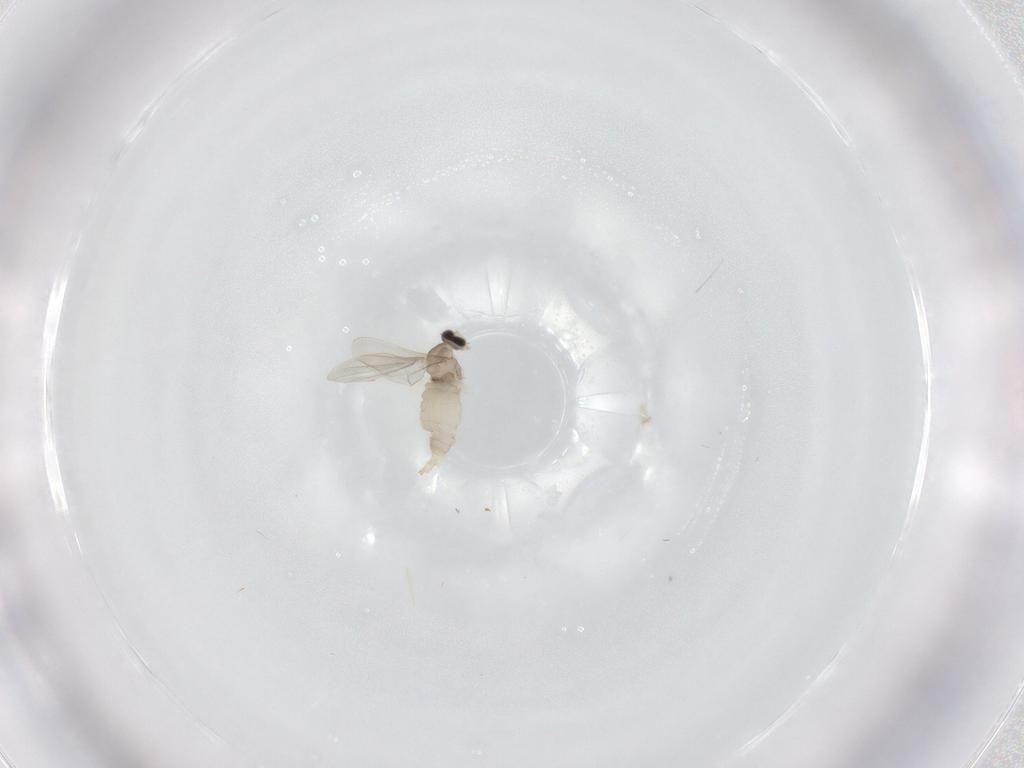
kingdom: Animalia
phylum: Arthropoda
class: Insecta
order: Diptera
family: Cecidomyiidae
